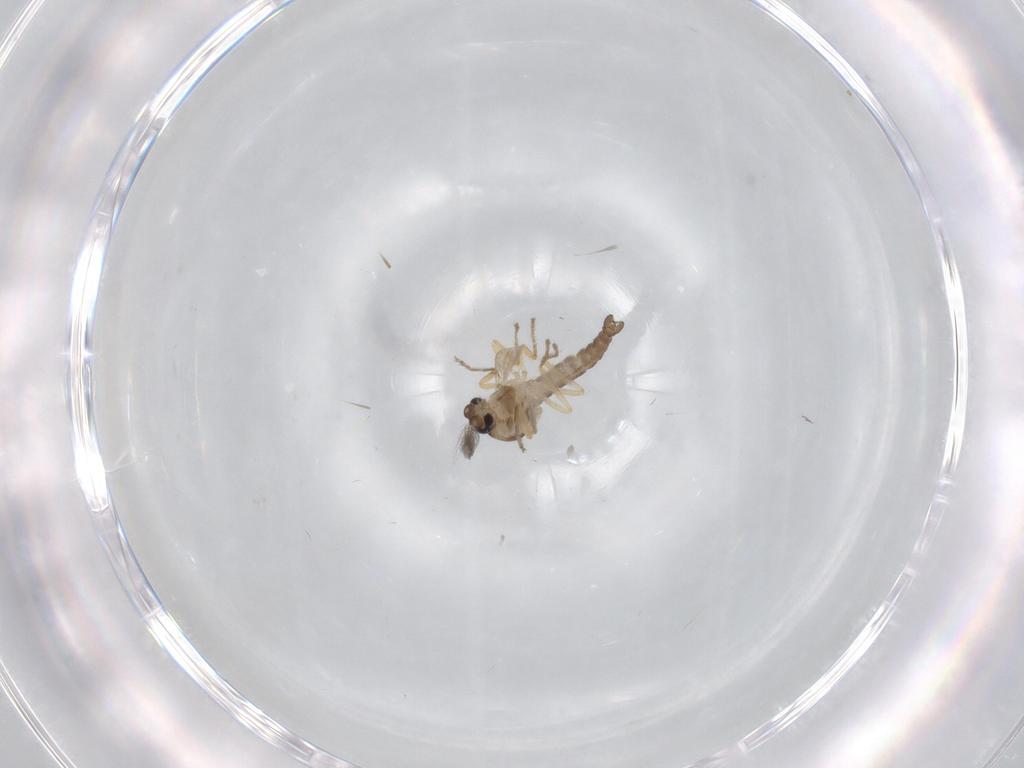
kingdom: Animalia
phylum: Arthropoda
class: Insecta
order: Diptera
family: Ceratopogonidae
